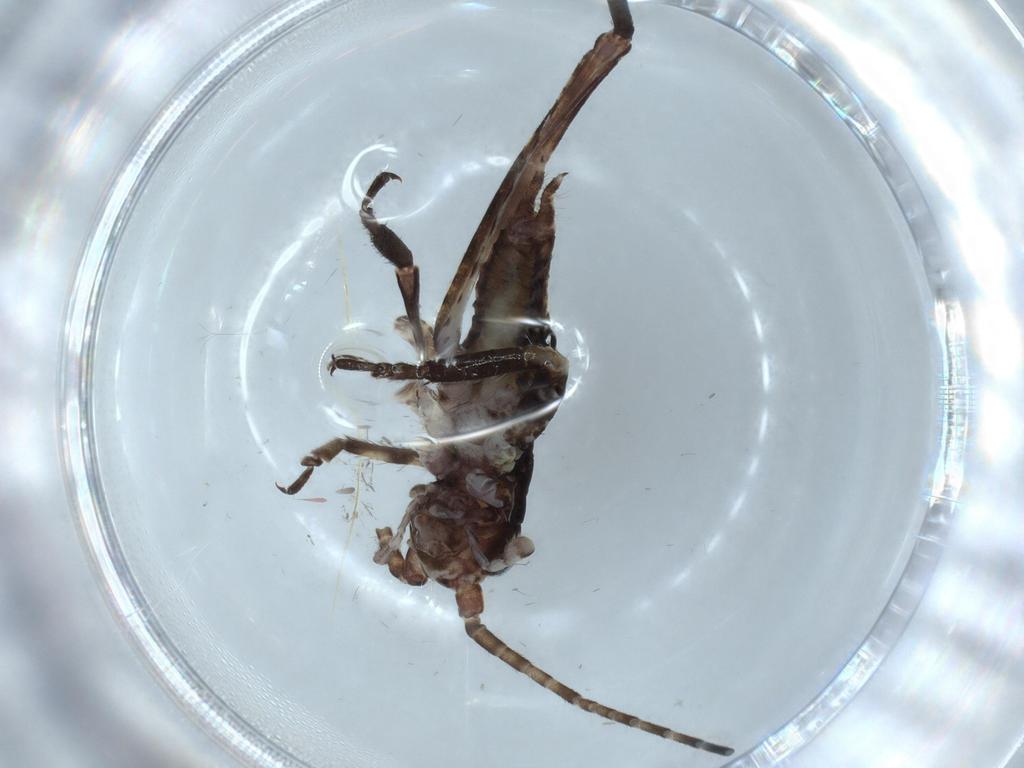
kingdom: Animalia
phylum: Arthropoda
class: Insecta
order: Orthoptera
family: Gryllidae
